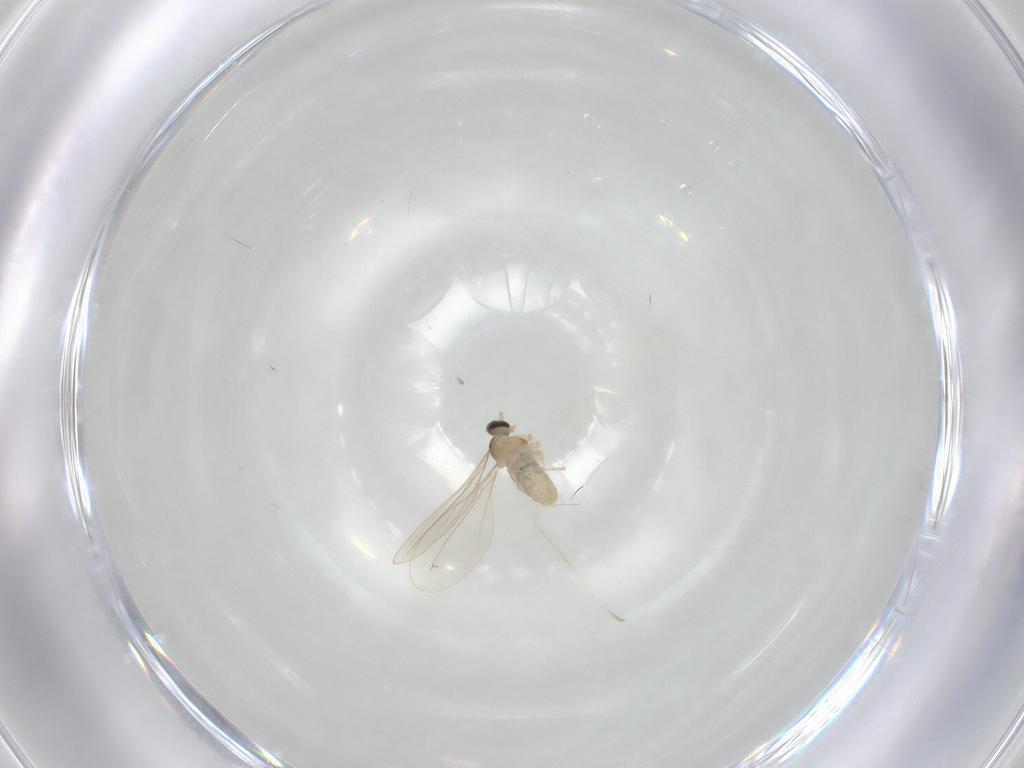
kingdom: Animalia
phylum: Arthropoda
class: Insecta
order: Diptera
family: Cecidomyiidae
